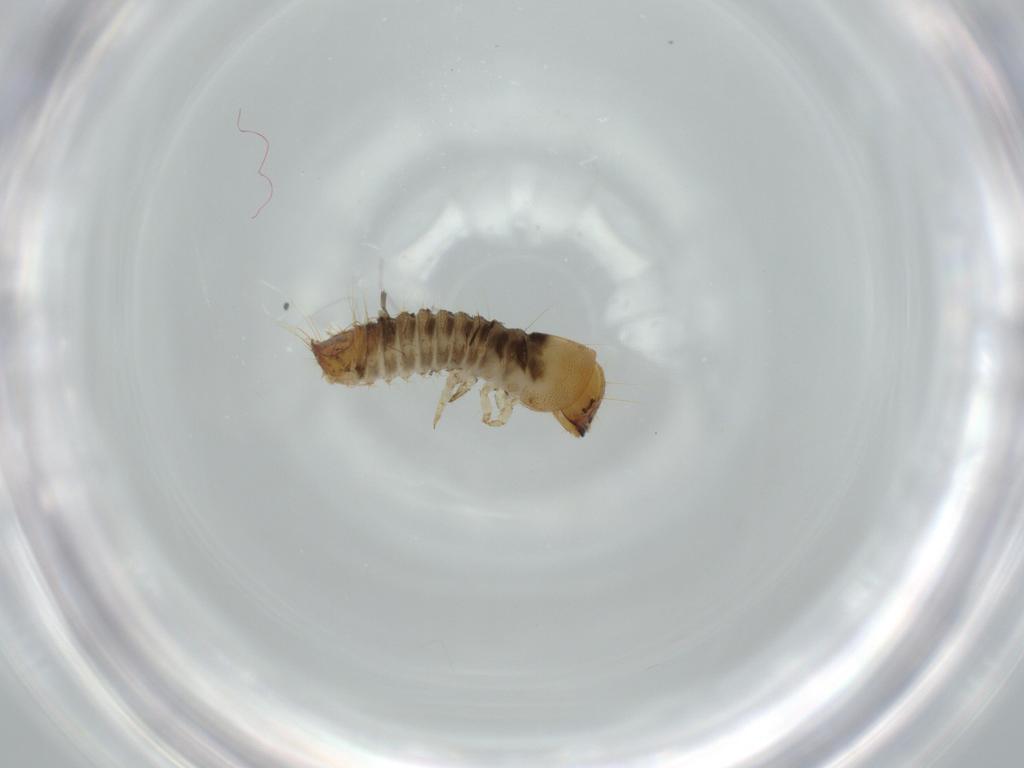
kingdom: Animalia
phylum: Arthropoda
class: Insecta
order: Coleoptera
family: Lymexylidae
